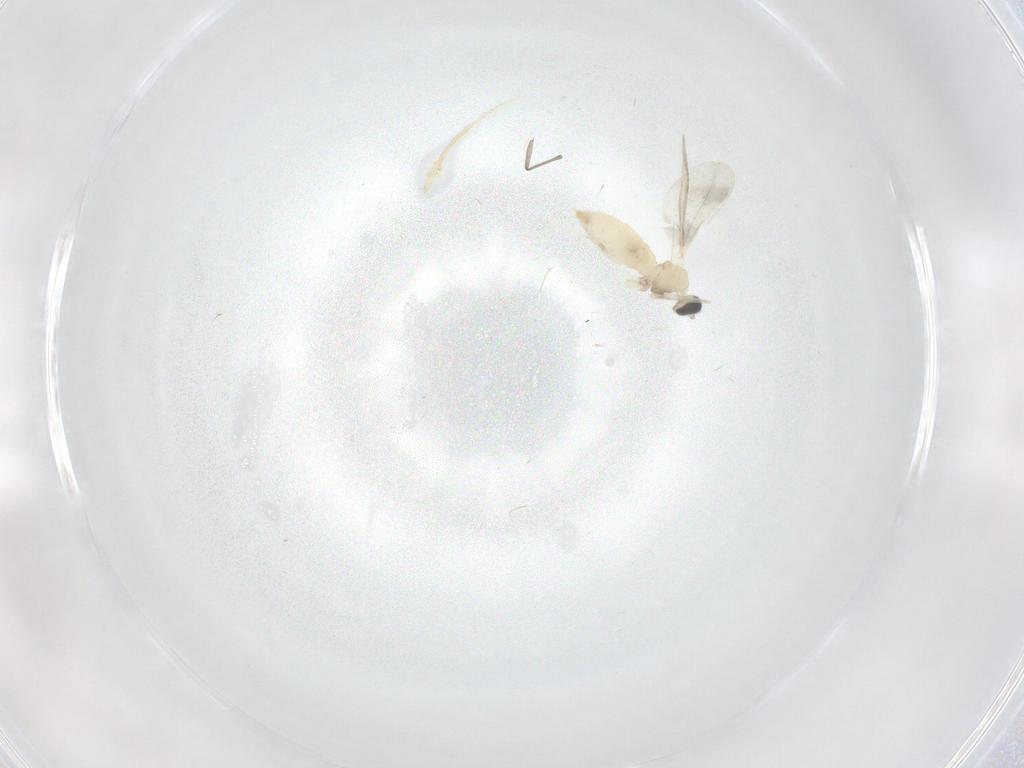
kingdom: Animalia
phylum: Arthropoda
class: Insecta
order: Diptera
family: Cecidomyiidae
